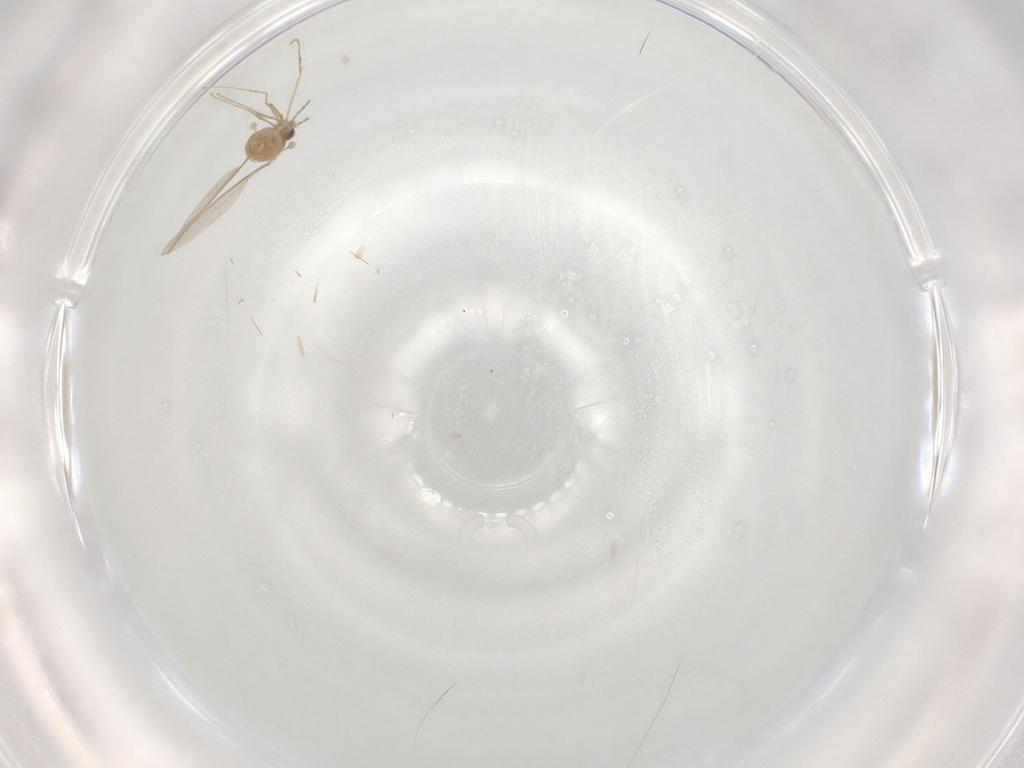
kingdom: Animalia
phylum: Arthropoda
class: Insecta
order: Diptera
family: Cecidomyiidae
